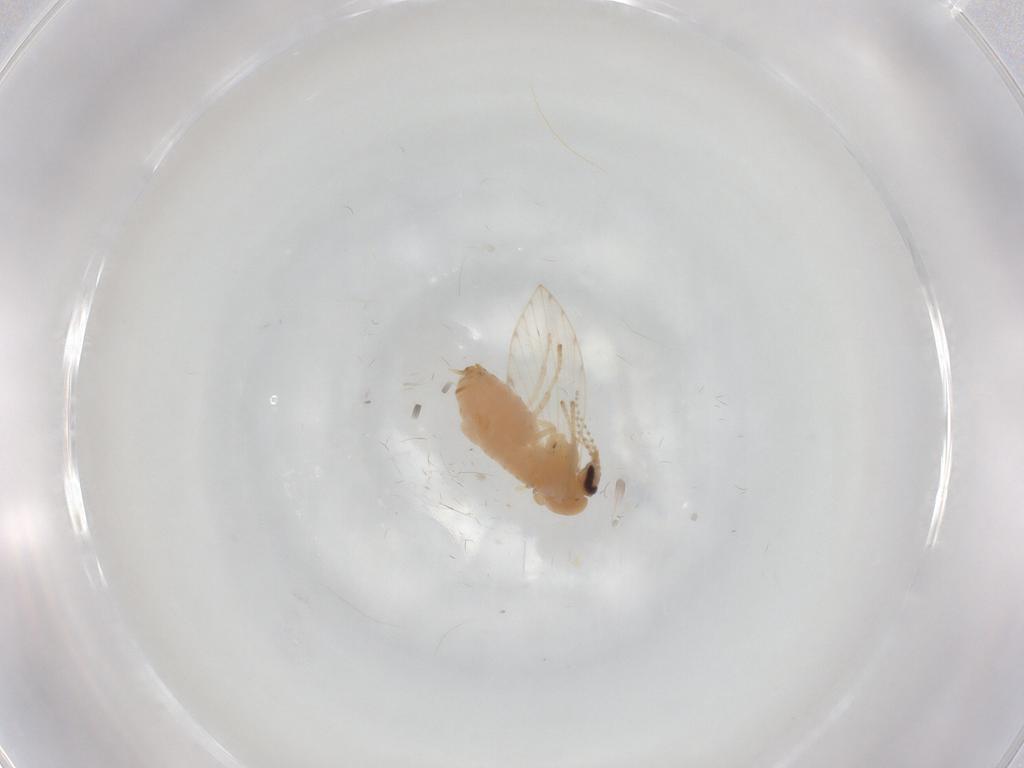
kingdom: Animalia
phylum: Arthropoda
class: Insecta
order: Diptera
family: Psychodidae
